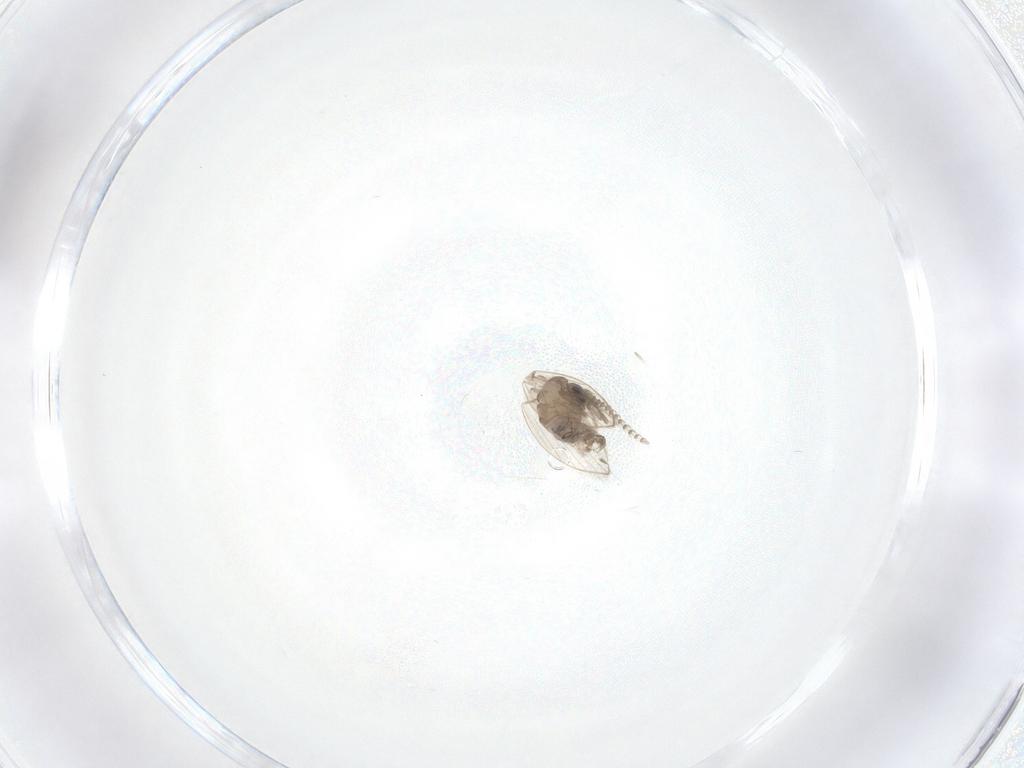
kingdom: Animalia
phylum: Arthropoda
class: Insecta
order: Diptera
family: Psychodidae
